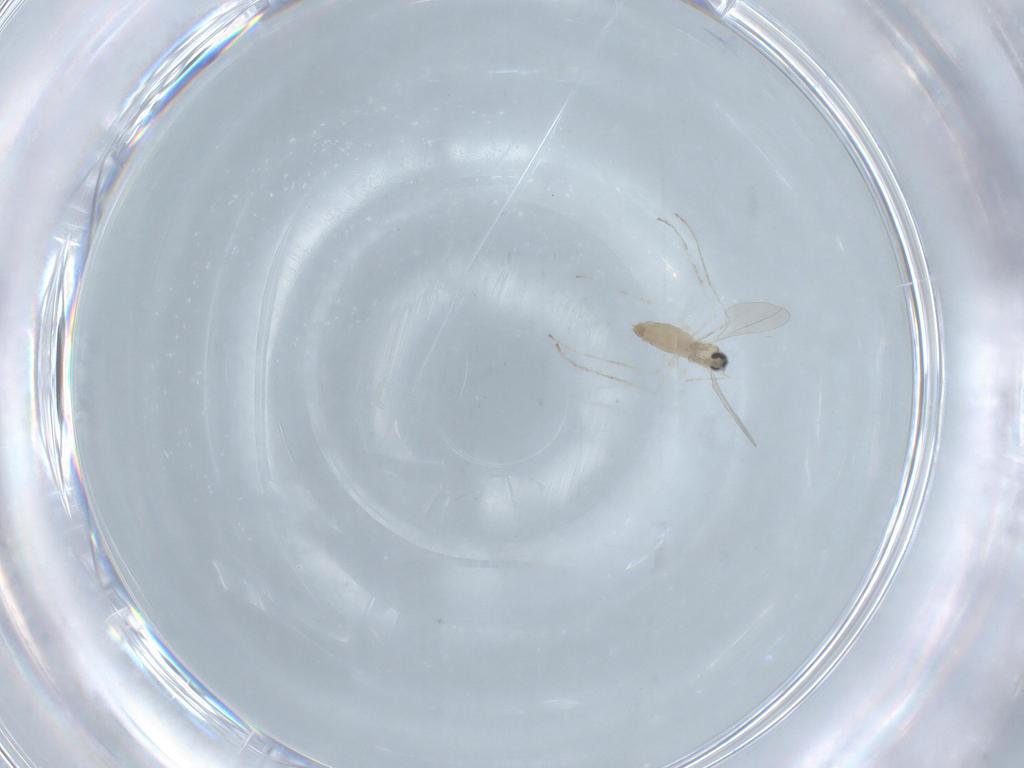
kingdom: Animalia
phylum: Arthropoda
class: Insecta
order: Diptera
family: Cecidomyiidae
